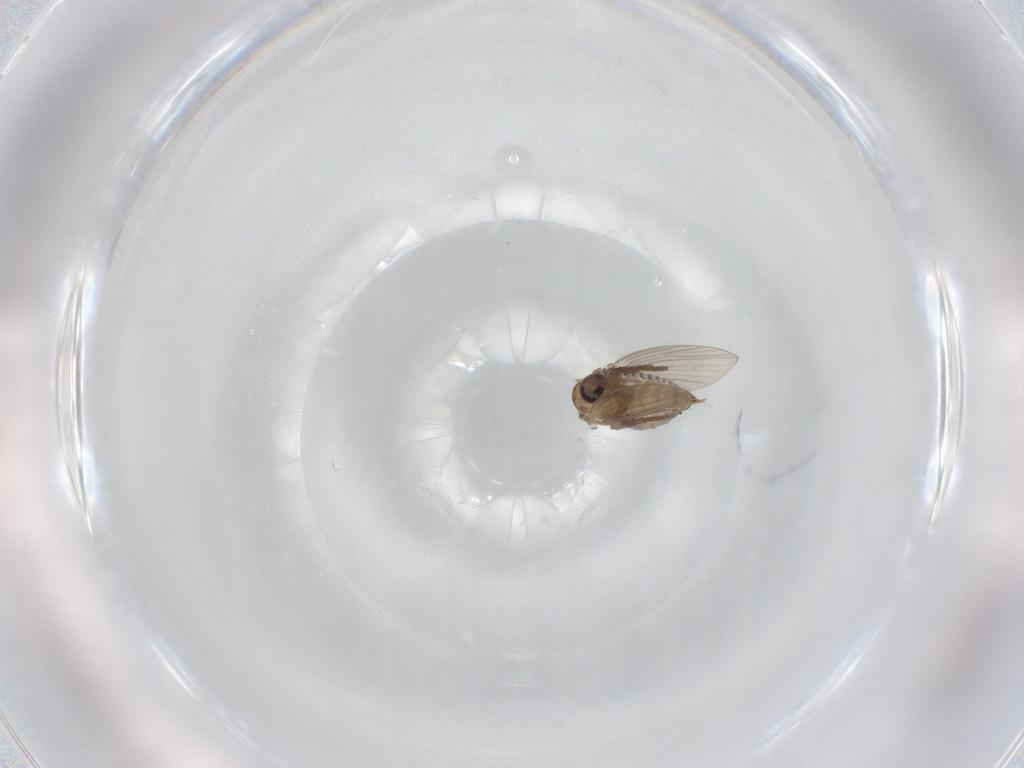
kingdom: Animalia
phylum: Arthropoda
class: Insecta
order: Diptera
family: Psychodidae
